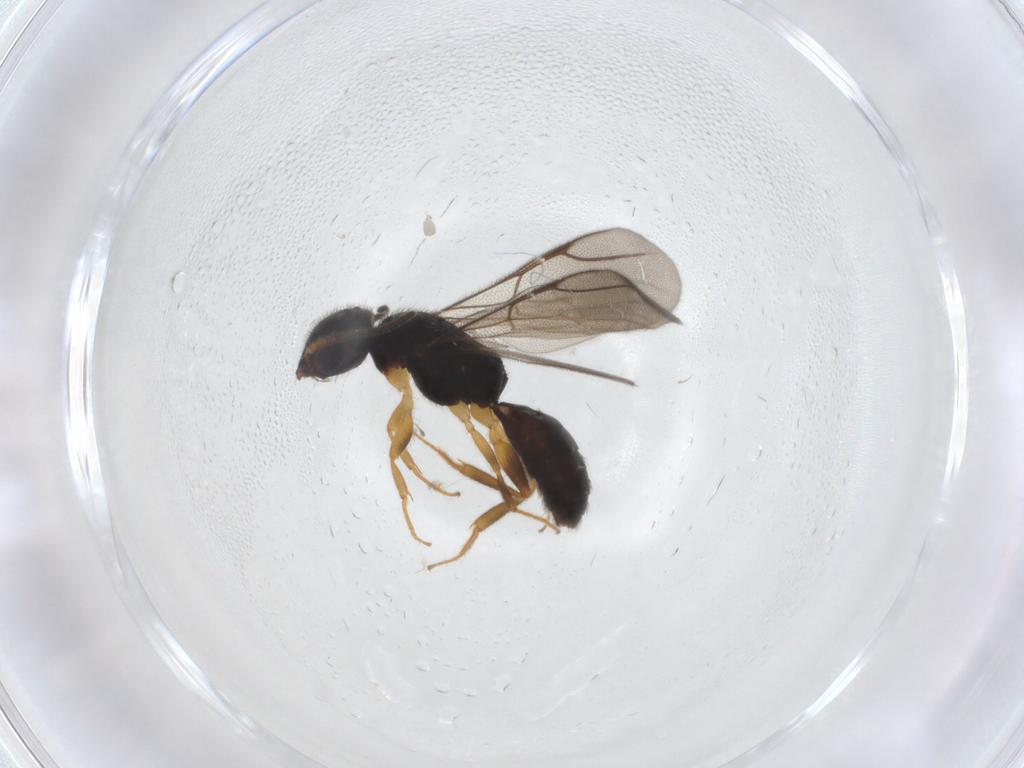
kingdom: Animalia
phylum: Arthropoda
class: Insecta
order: Hymenoptera
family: Bethylidae
